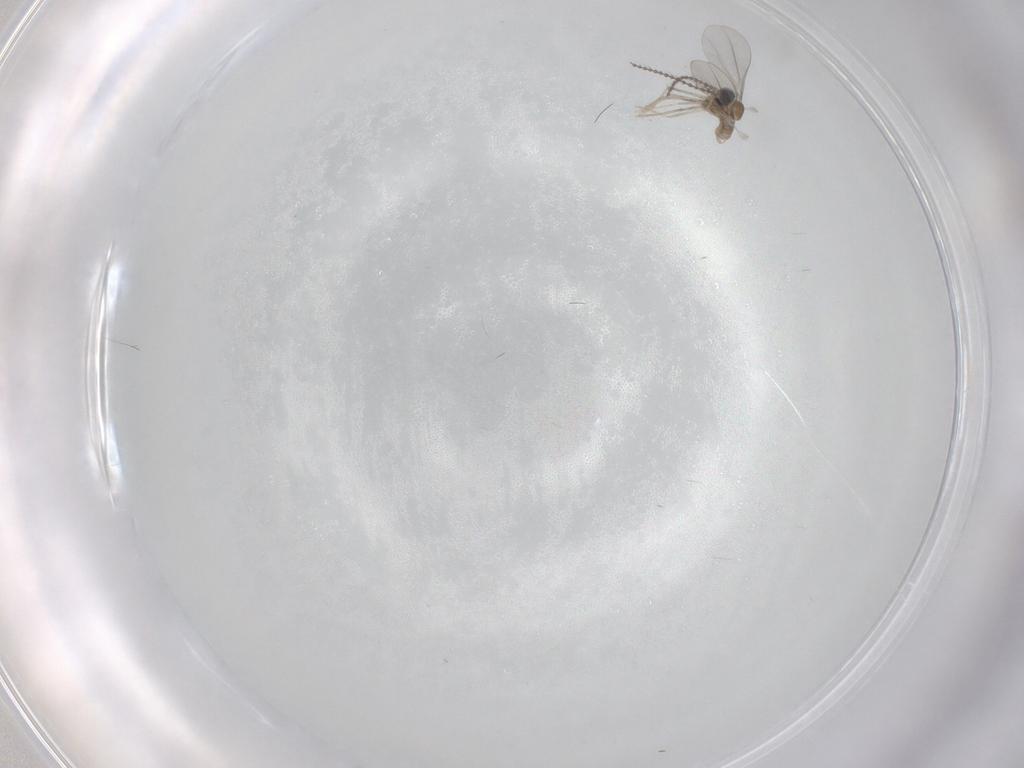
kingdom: Animalia
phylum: Arthropoda
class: Insecta
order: Diptera
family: Cecidomyiidae
